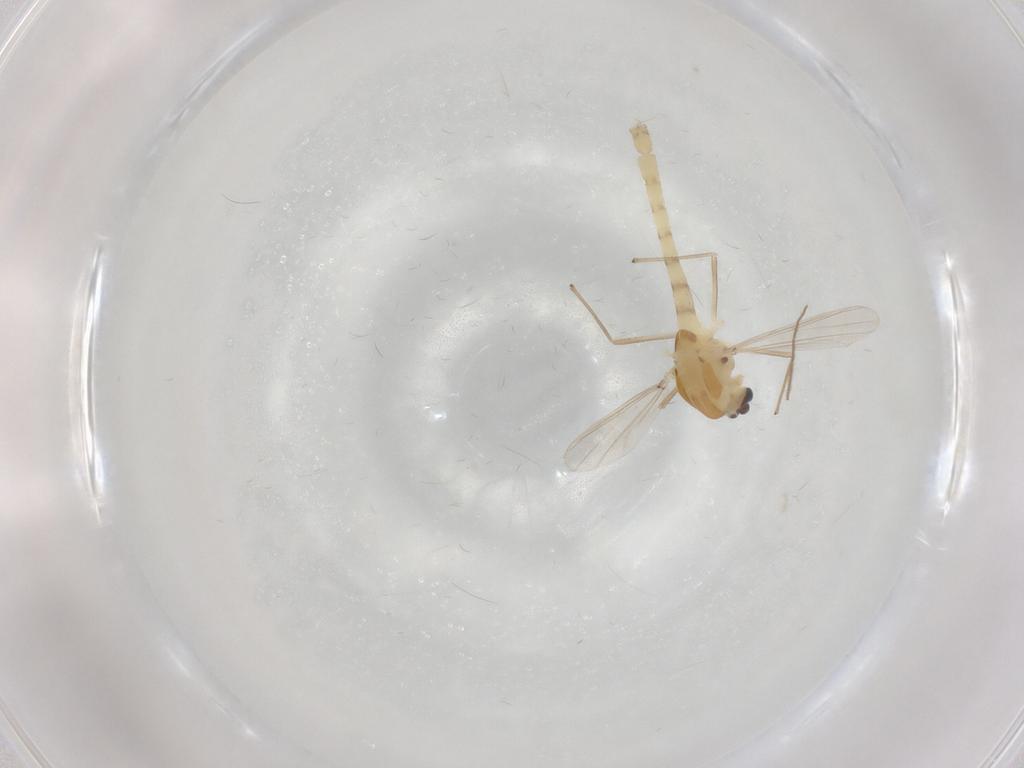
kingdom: Animalia
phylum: Arthropoda
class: Insecta
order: Diptera
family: Chironomidae
